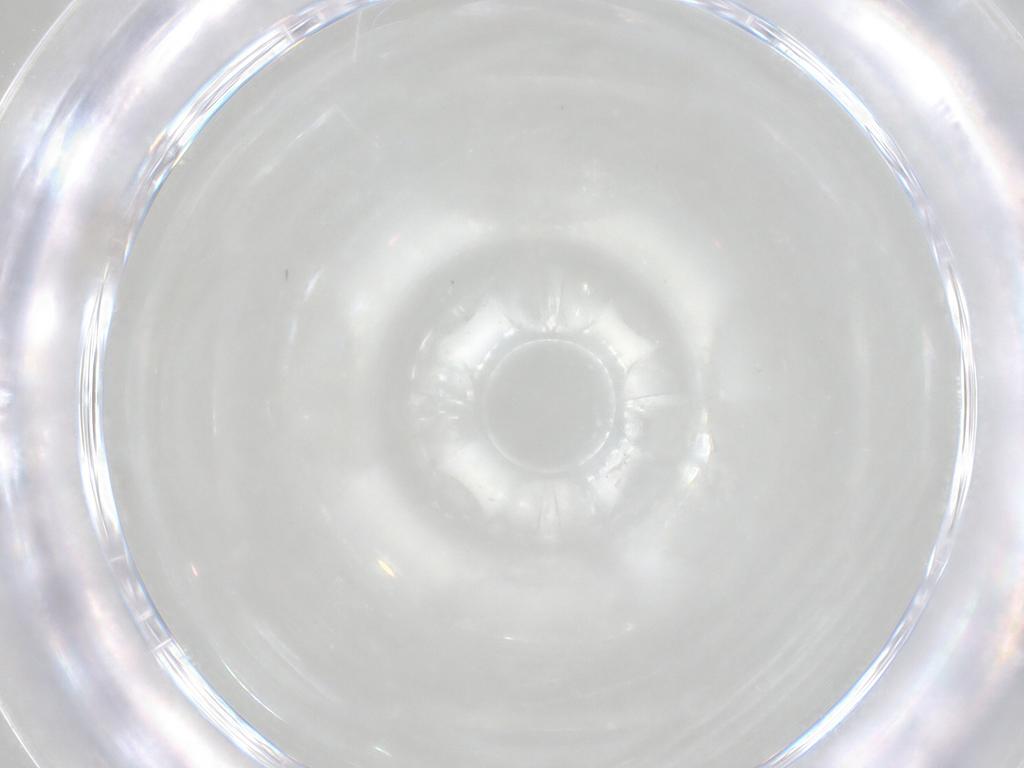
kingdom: Animalia
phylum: Arthropoda
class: Insecta
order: Diptera
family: Cecidomyiidae
